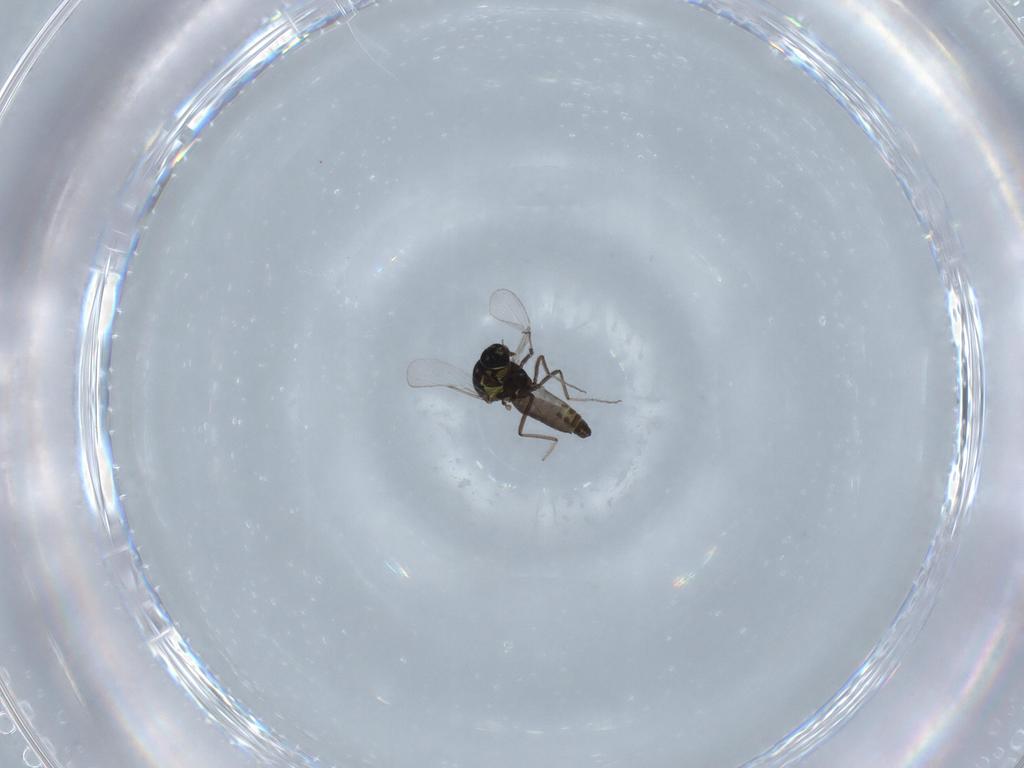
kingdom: Animalia
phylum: Arthropoda
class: Insecta
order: Diptera
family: Ceratopogonidae
